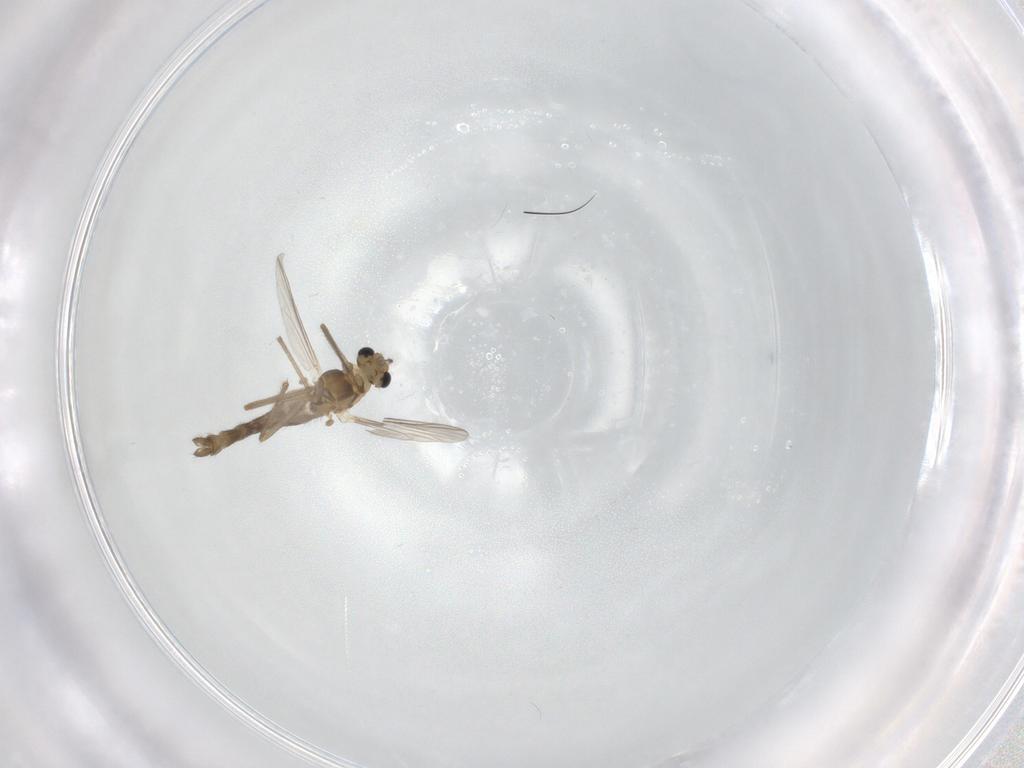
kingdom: Animalia
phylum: Arthropoda
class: Insecta
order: Diptera
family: Chironomidae
